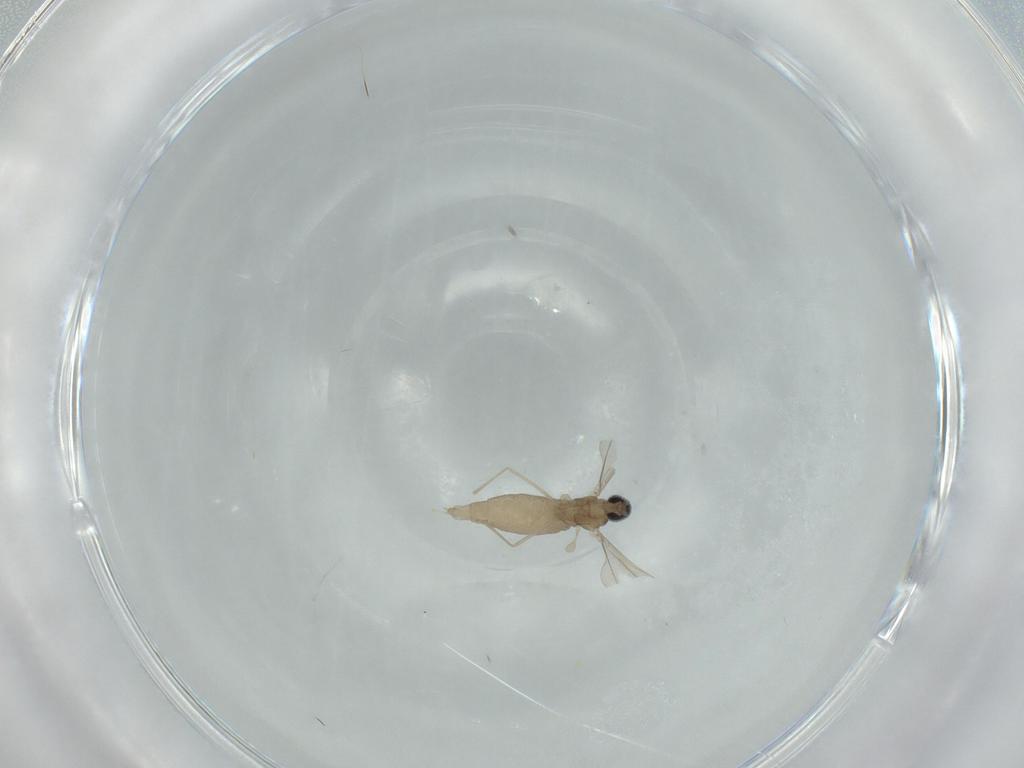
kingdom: Animalia
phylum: Arthropoda
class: Insecta
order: Diptera
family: Cecidomyiidae
